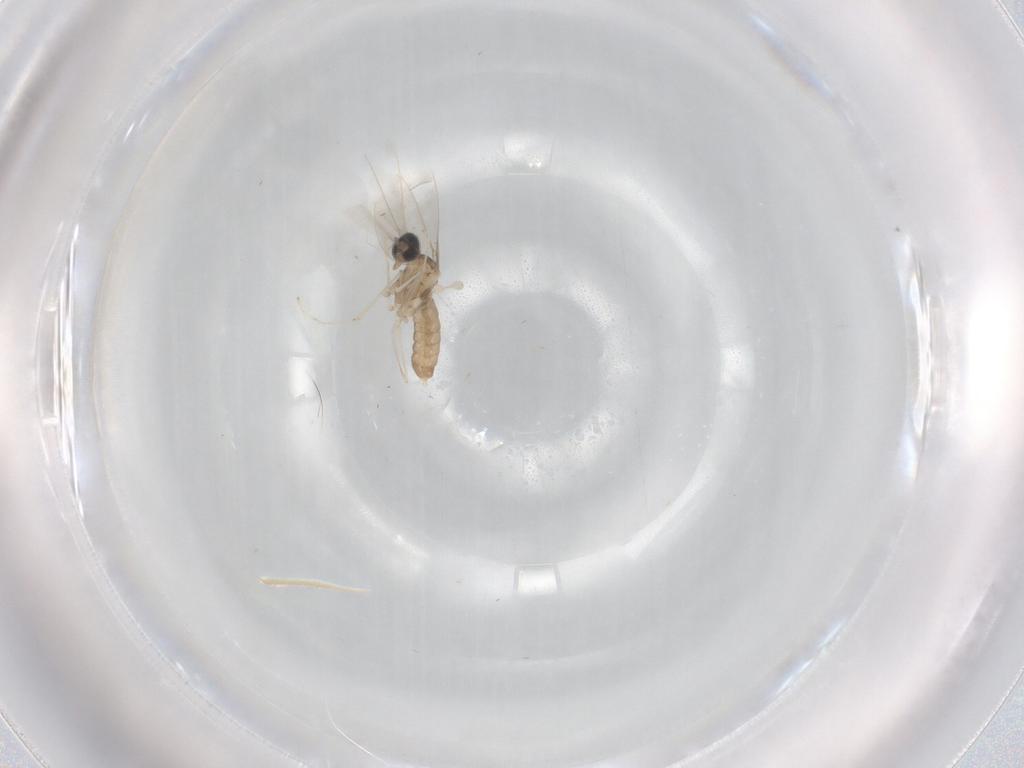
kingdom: Animalia
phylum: Arthropoda
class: Insecta
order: Diptera
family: Cecidomyiidae
